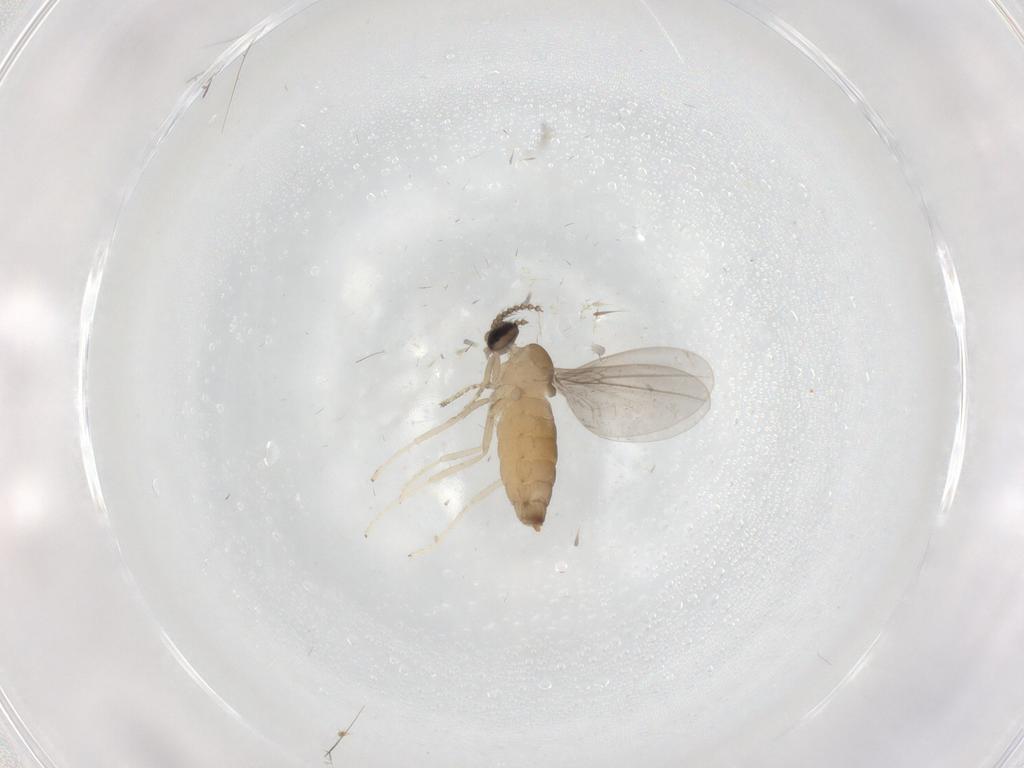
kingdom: Animalia
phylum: Arthropoda
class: Insecta
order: Diptera
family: Cecidomyiidae
